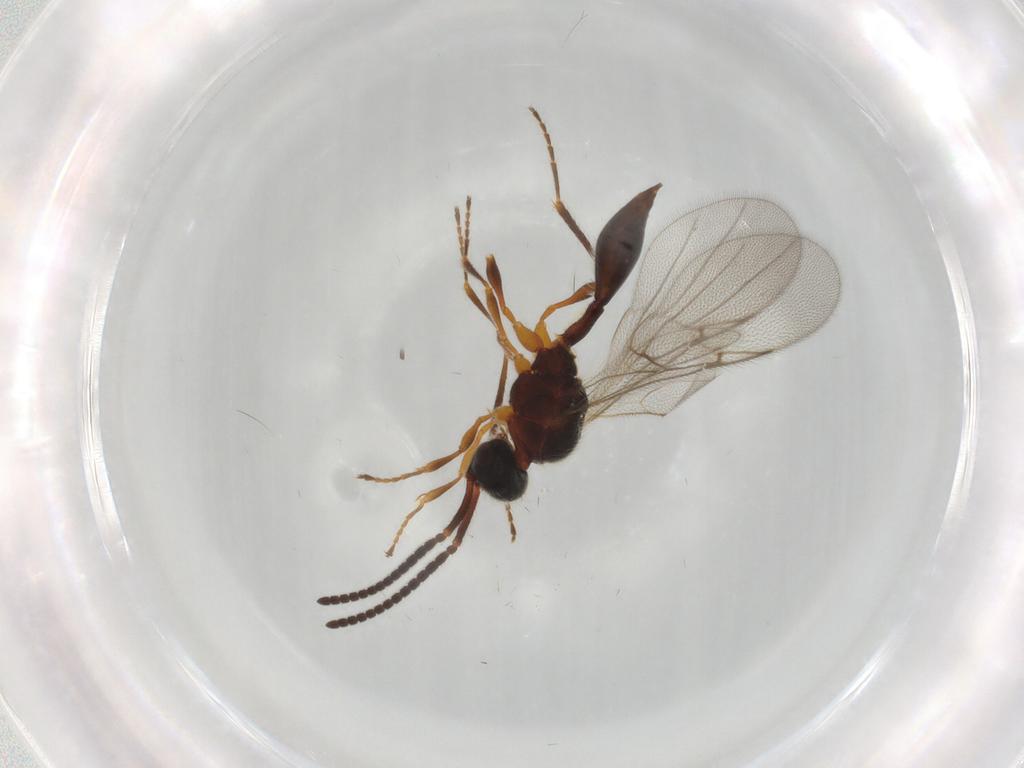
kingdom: Animalia
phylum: Arthropoda
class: Insecta
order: Hymenoptera
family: Diapriidae
